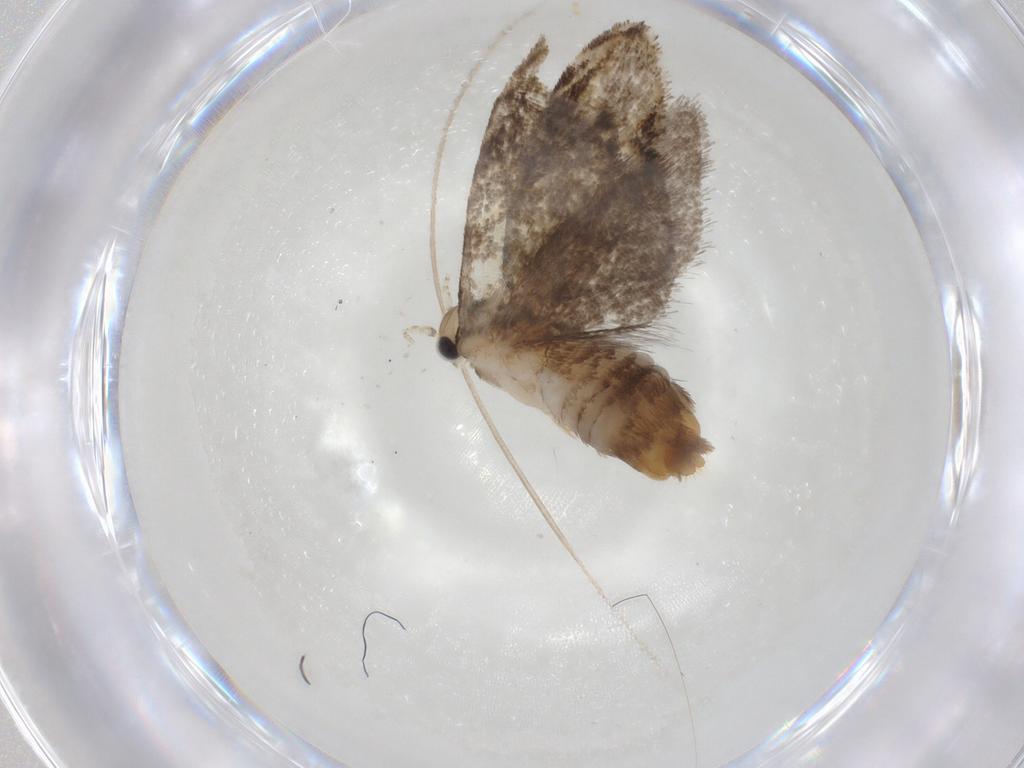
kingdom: Animalia
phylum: Arthropoda
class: Insecta
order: Lepidoptera
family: Tineidae
